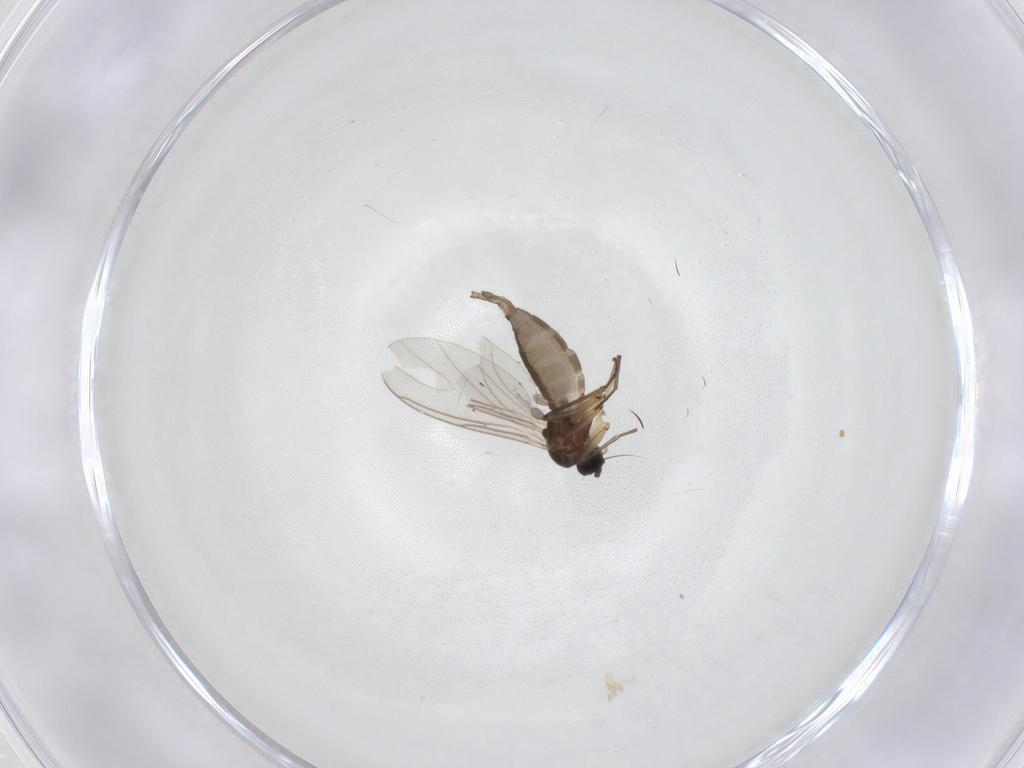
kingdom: Animalia
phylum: Arthropoda
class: Insecta
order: Diptera
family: Sciaridae
